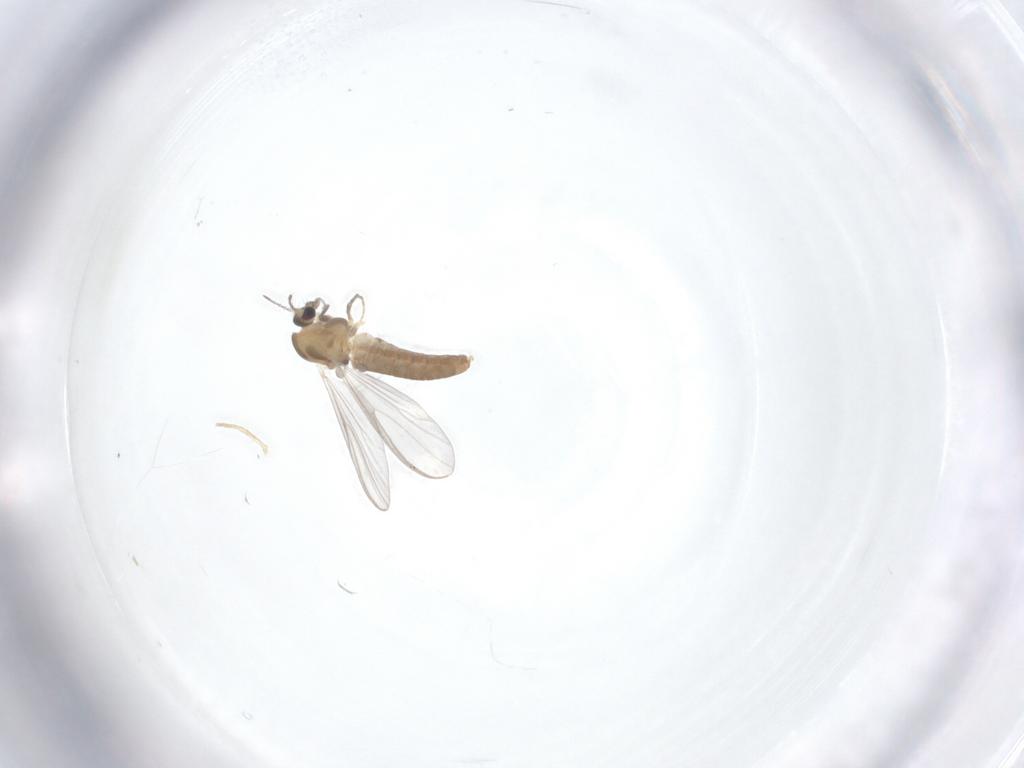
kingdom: Animalia
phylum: Arthropoda
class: Insecta
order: Diptera
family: Chironomidae
